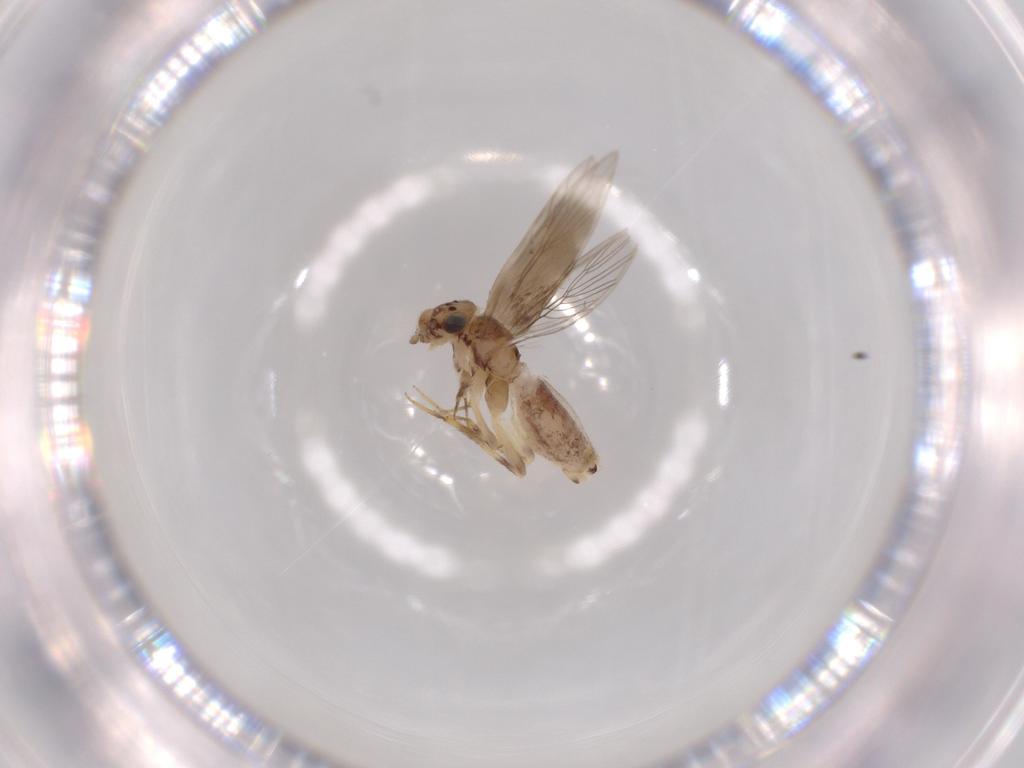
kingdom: Animalia
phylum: Arthropoda
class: Insecta
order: Psocodea
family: Lepidopsocidae
